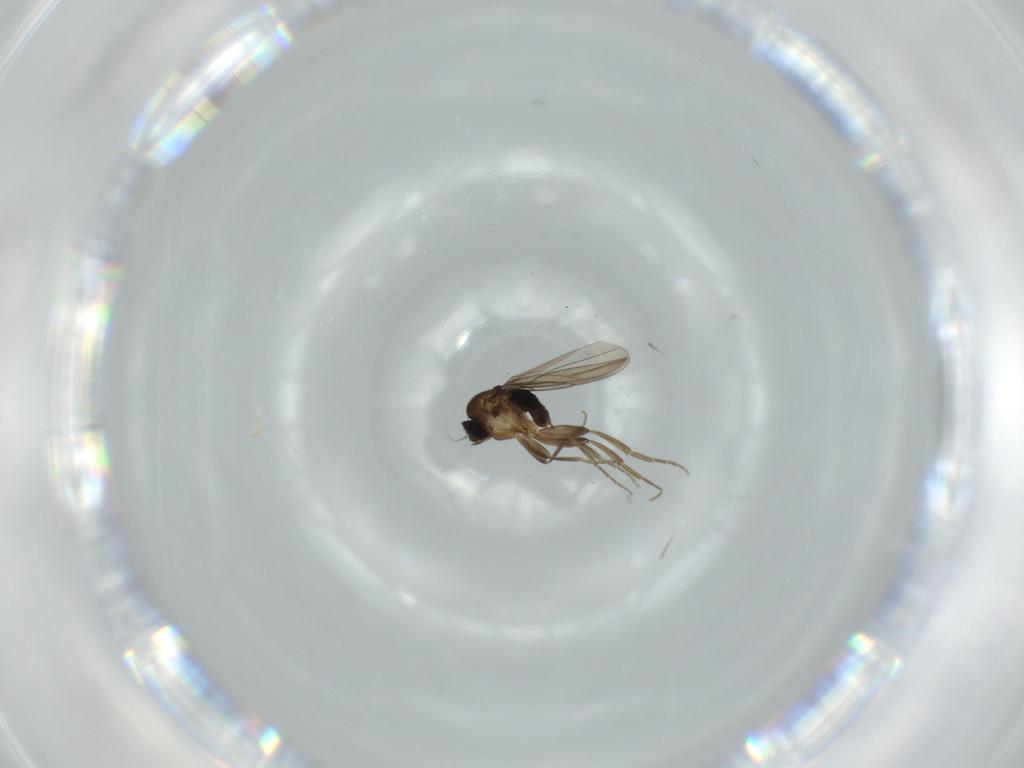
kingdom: Animalia
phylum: Arthropoda
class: Insecta
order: Diptera
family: Phoridae
